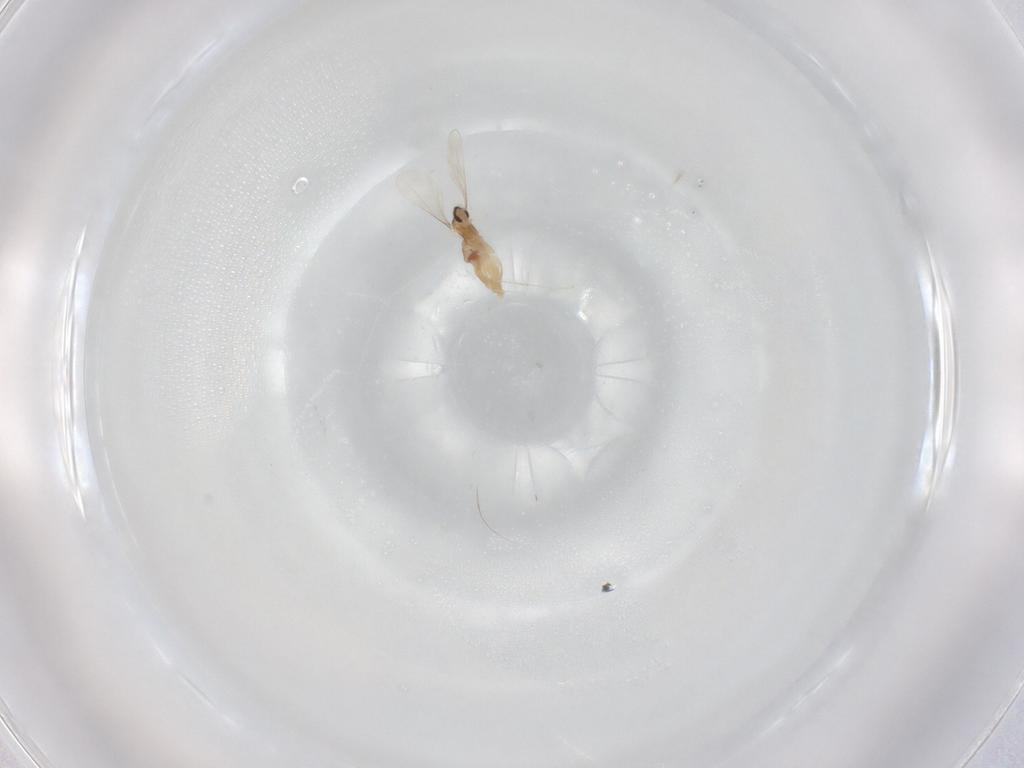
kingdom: Animalia
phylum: Arthropoda
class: Insecta
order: Diptera
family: Cecidomyiidae
